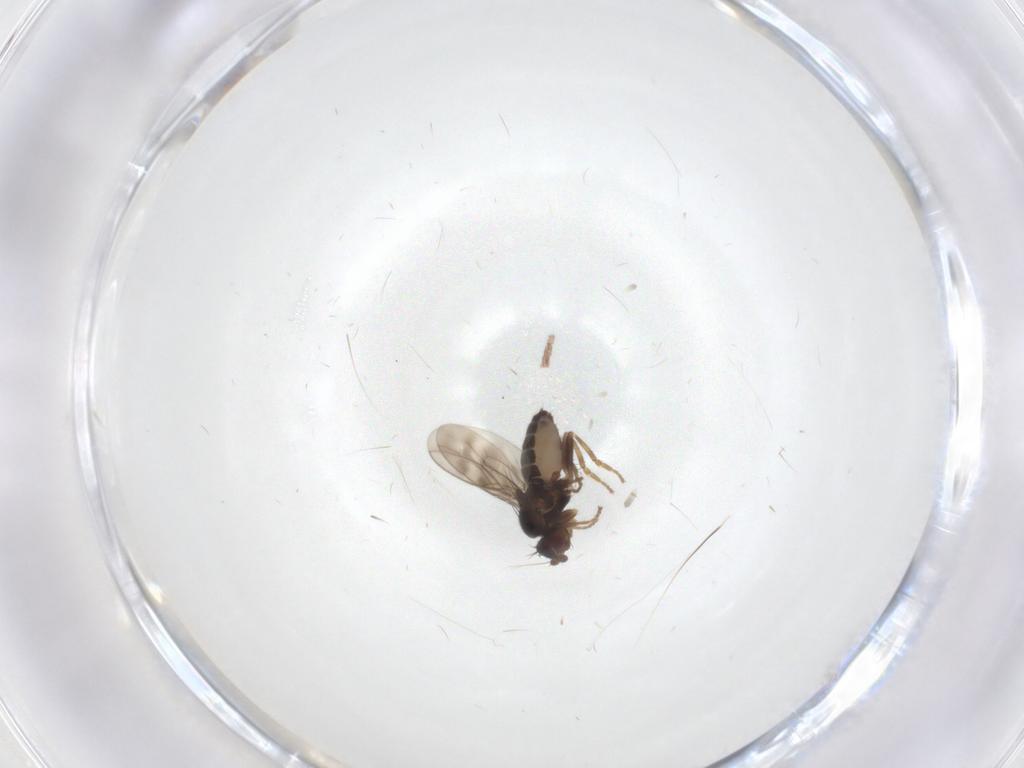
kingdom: Animalia
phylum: Arthropoda
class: Insecta
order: Diptera
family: Sphaeroceridae
